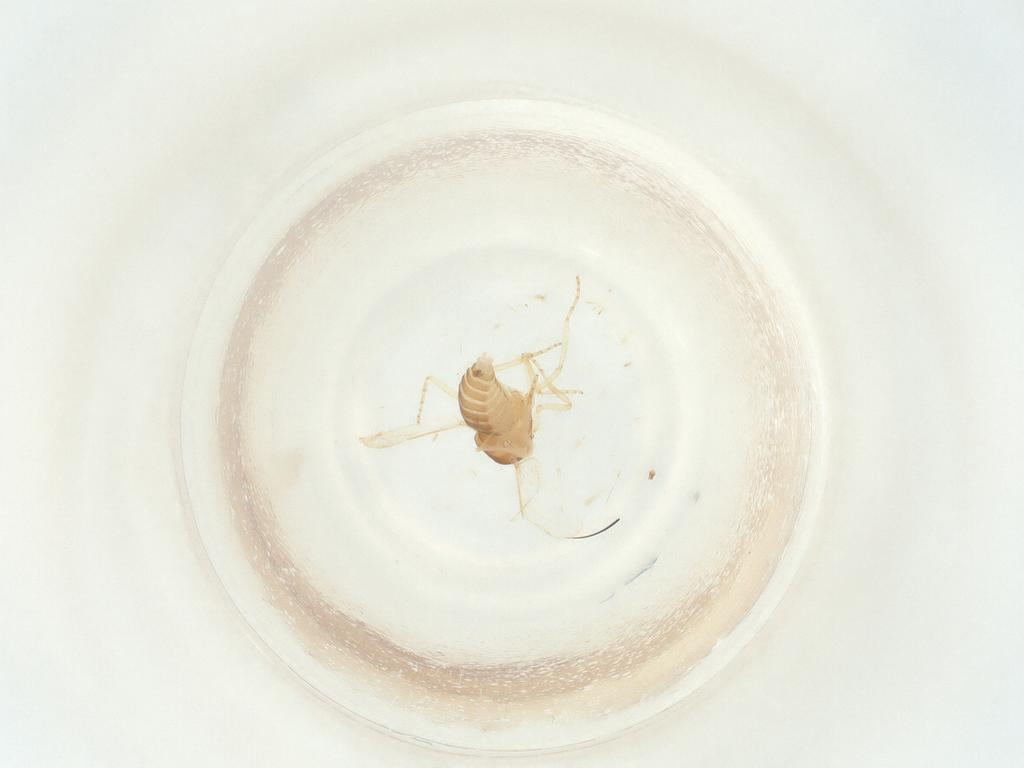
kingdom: Animalia
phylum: Arthropoda
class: Insecta
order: Diptera
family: Ceratopogonidae
